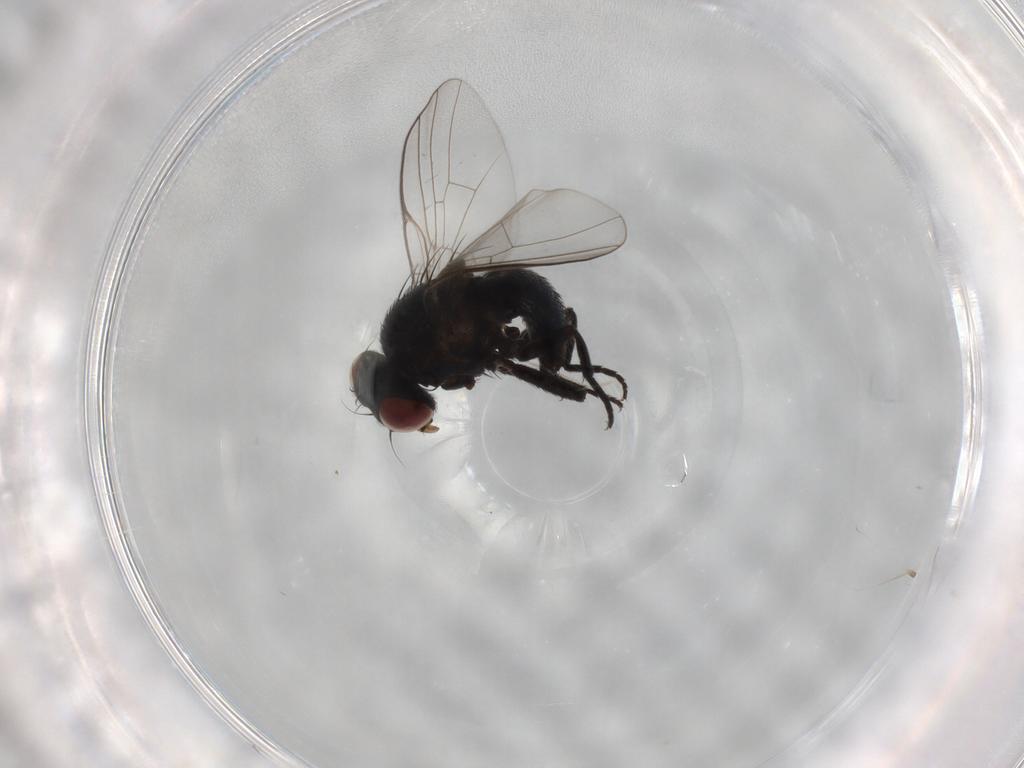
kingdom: Animalia
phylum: Arthropoda
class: Insecta
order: Diptera
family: Agromyzidae
